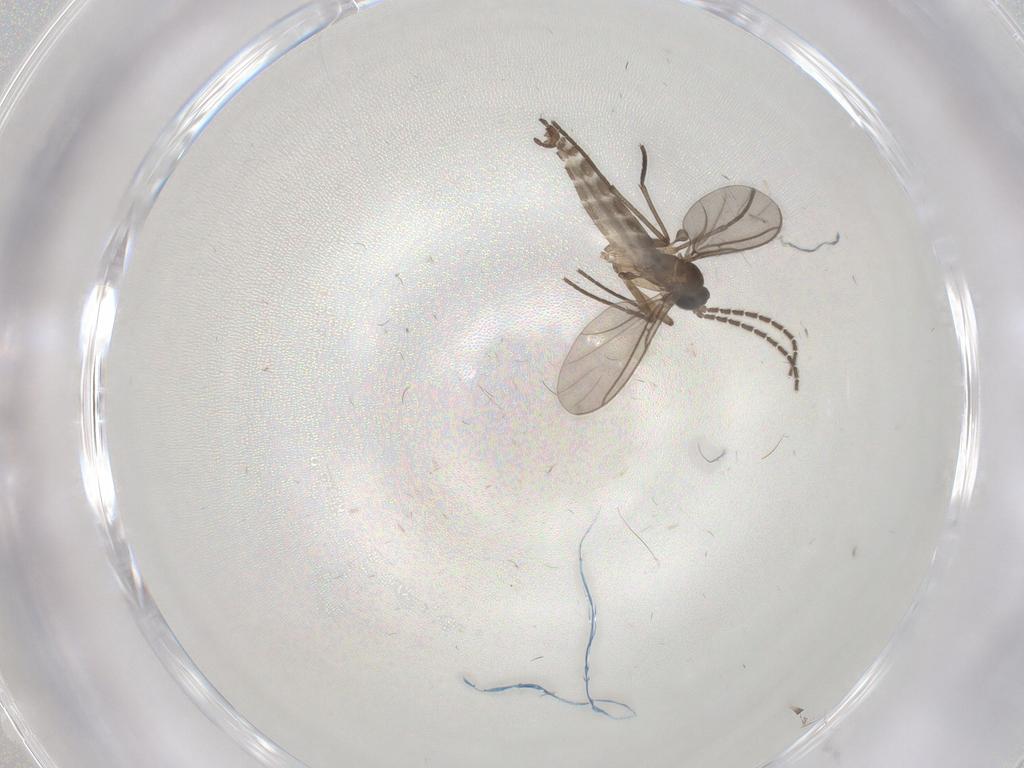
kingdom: Animalia
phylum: Arthropoda
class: Insecta
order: Diptera
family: Sciaridae
